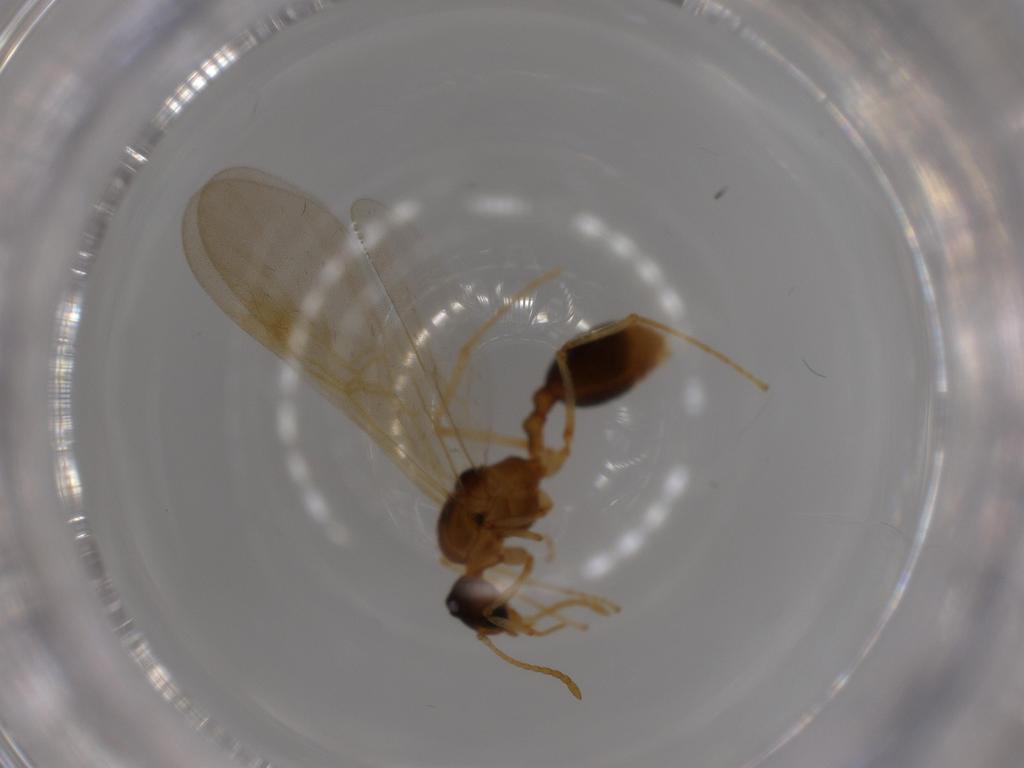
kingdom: Animalia
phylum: Arthropoda
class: Insecta
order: Hymenoptera
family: Formicidae
